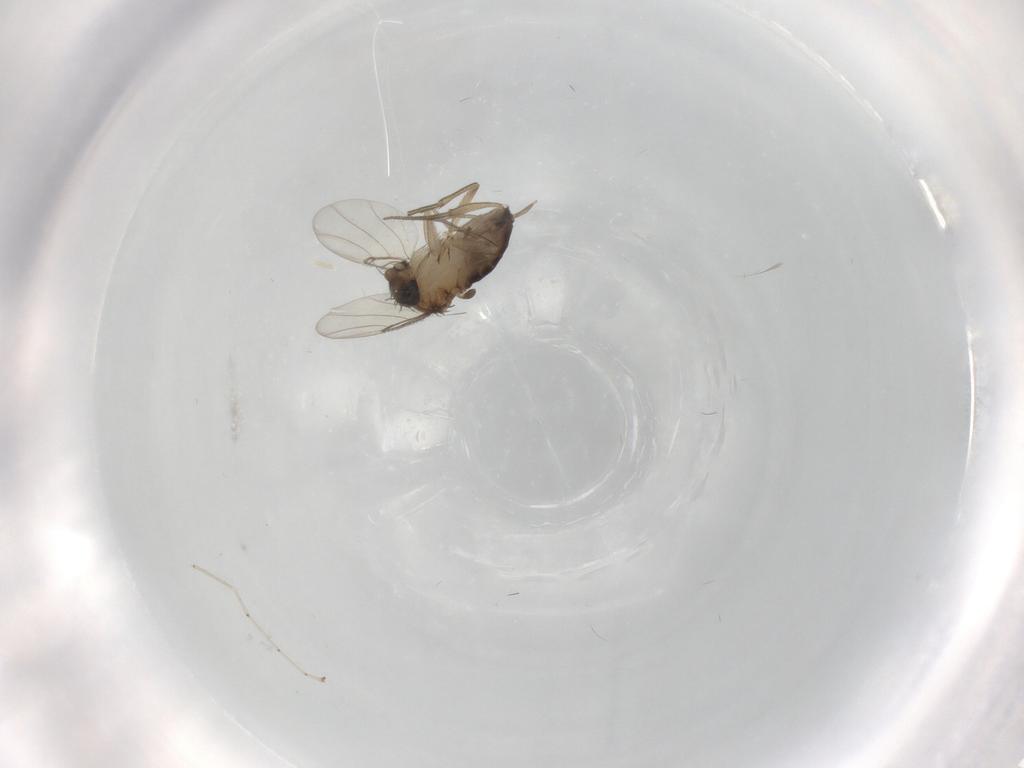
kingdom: Animalia
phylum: Arthropoda
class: Insecta
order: Diptera
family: Cecidomyiidae
